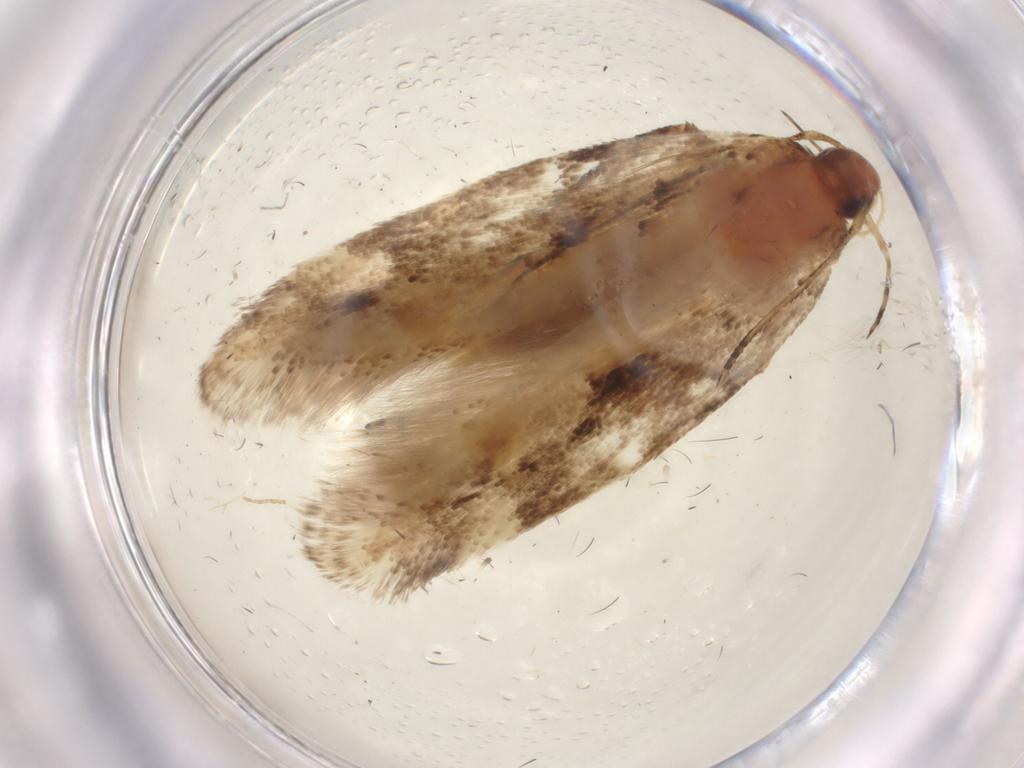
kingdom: Animalia
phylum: Arthropoda
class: Insecta
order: Lepidoptera
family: Gelechiidae
